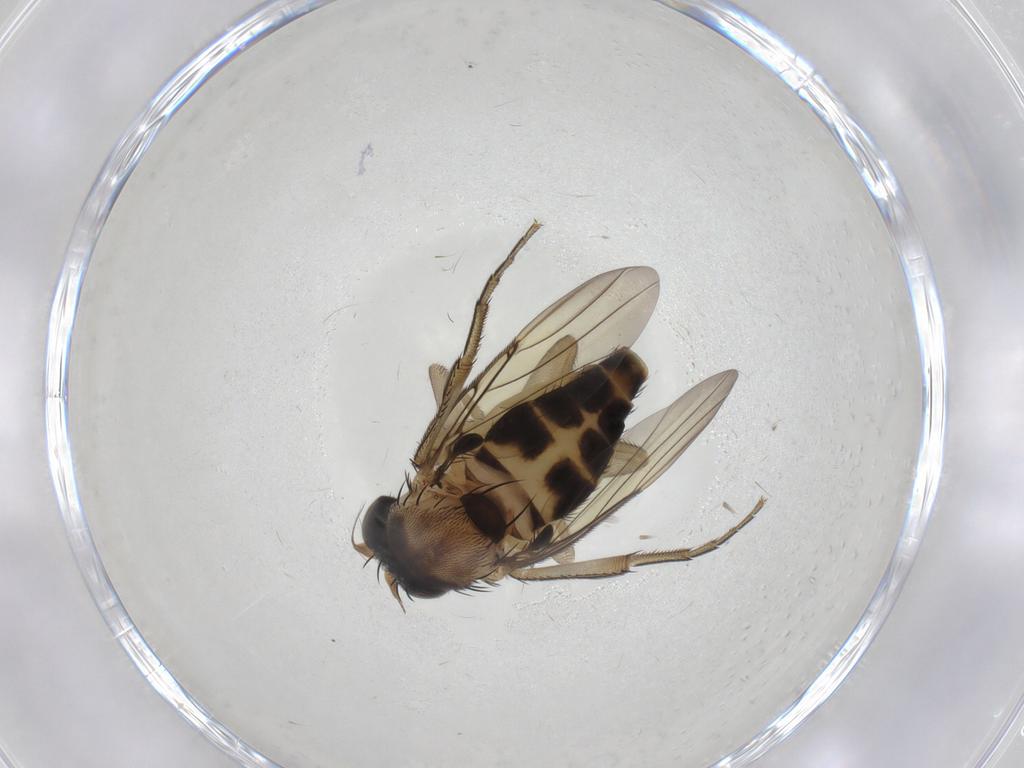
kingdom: Animalia
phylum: Arthropoda
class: Insecta
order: Diptera
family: Phoridae
